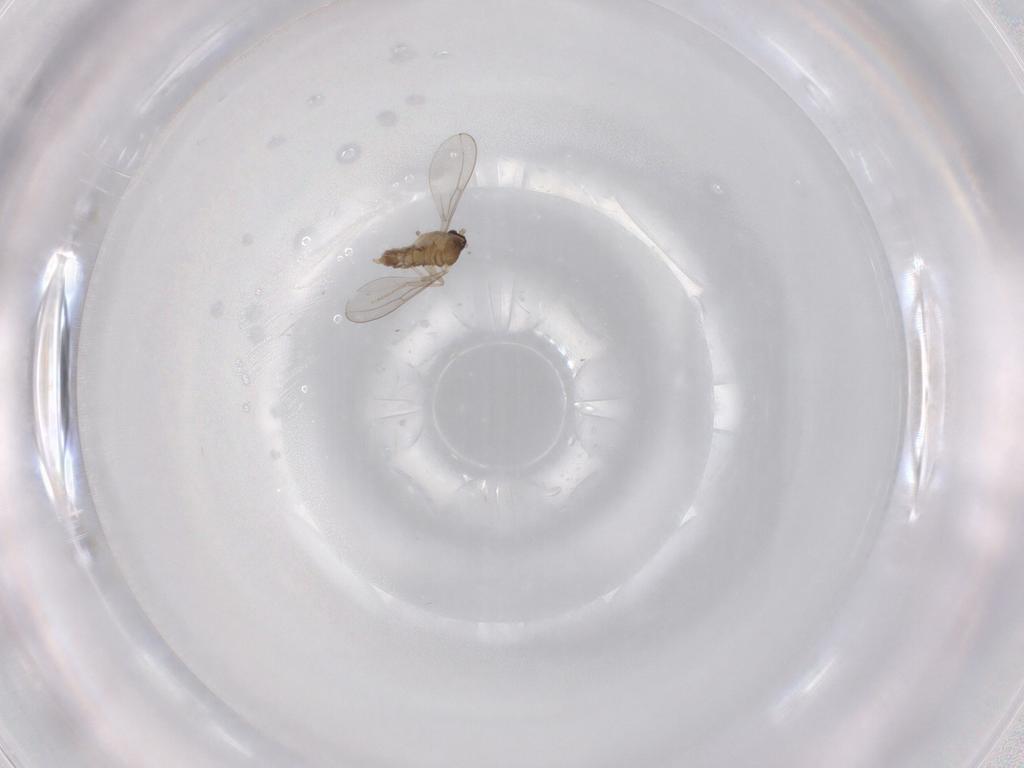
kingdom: Animalia
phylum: Arthropoda
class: Insecta
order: Diptera
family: Cecidomyiidae
